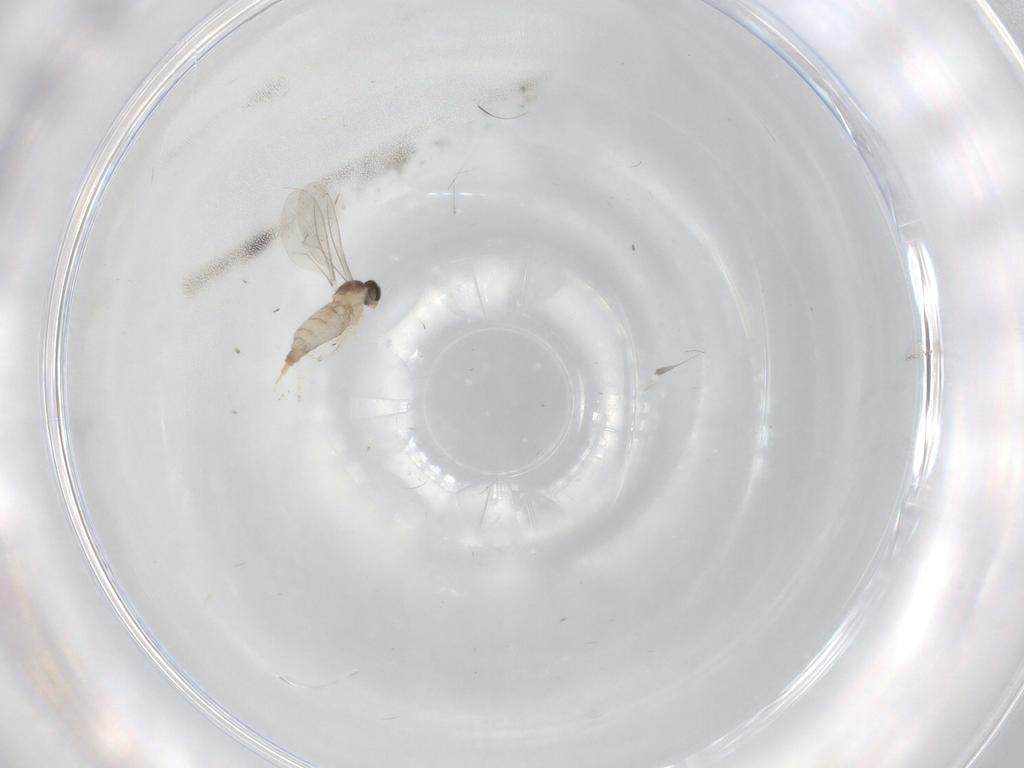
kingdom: Animalia
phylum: Arthropoda
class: Insecta
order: Diptera
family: Cecidomyiidae
